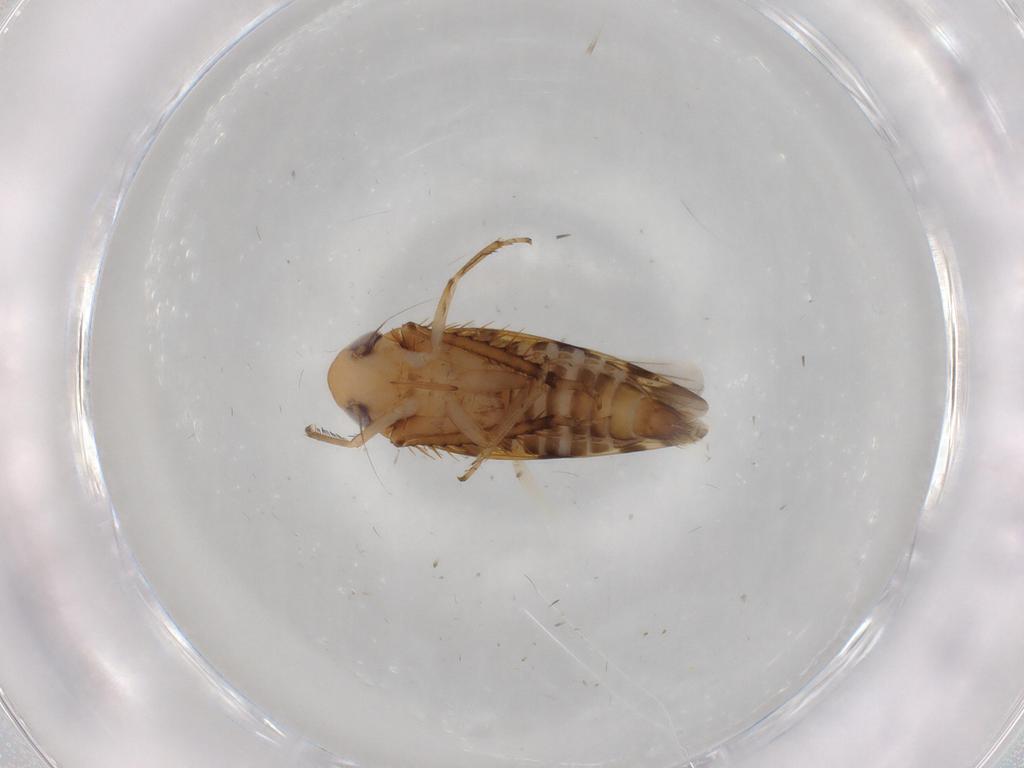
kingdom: Animalia
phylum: Arthropoda
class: Insecta
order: Hemiptera
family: Cicadellidae
